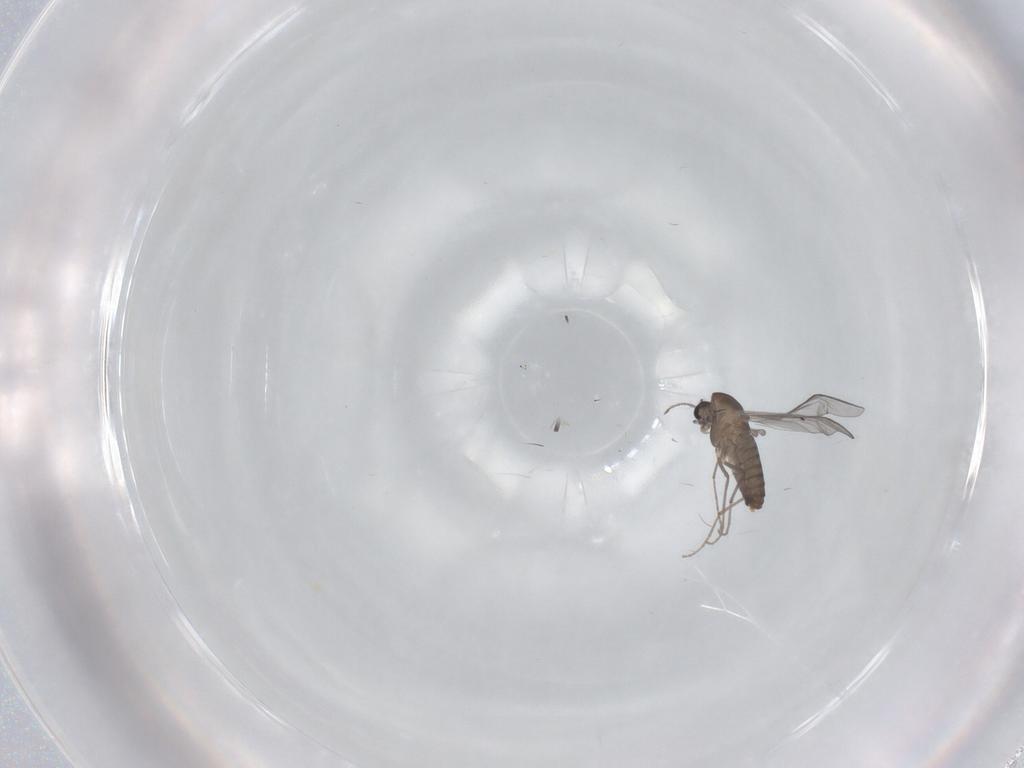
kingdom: Animalia
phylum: Arthropoda
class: Insecta
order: Diptera
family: Chironomidae
